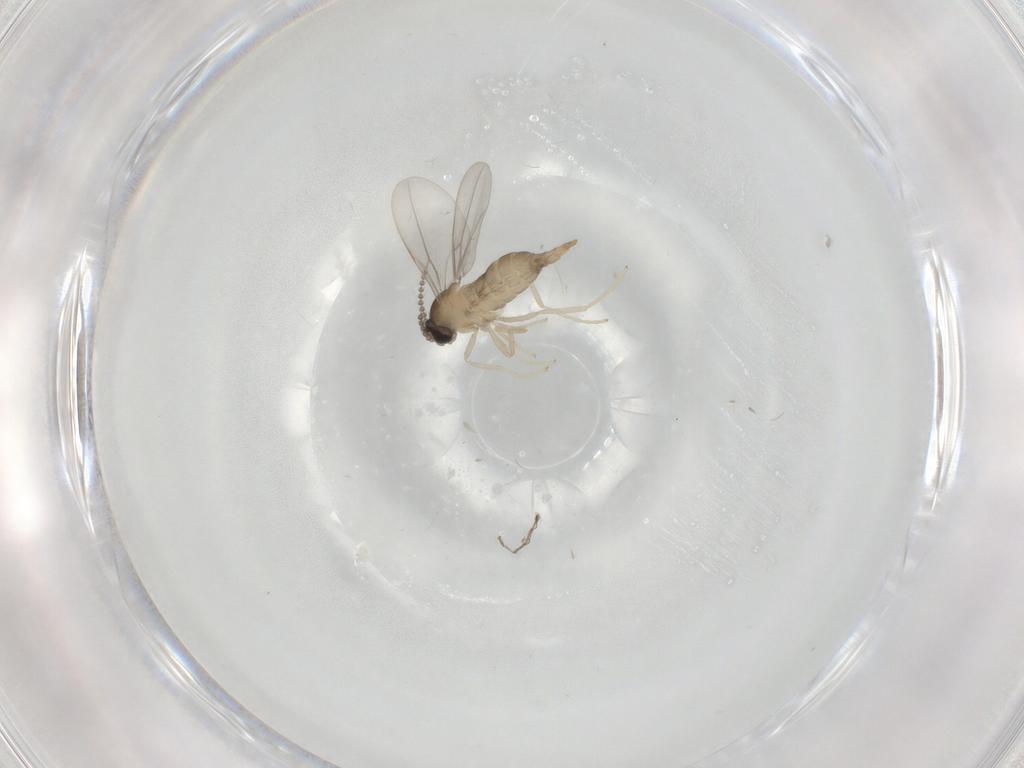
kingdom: Animalia
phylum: Arthropoda
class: Insecta
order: Diptera
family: Cecidomyiidae
